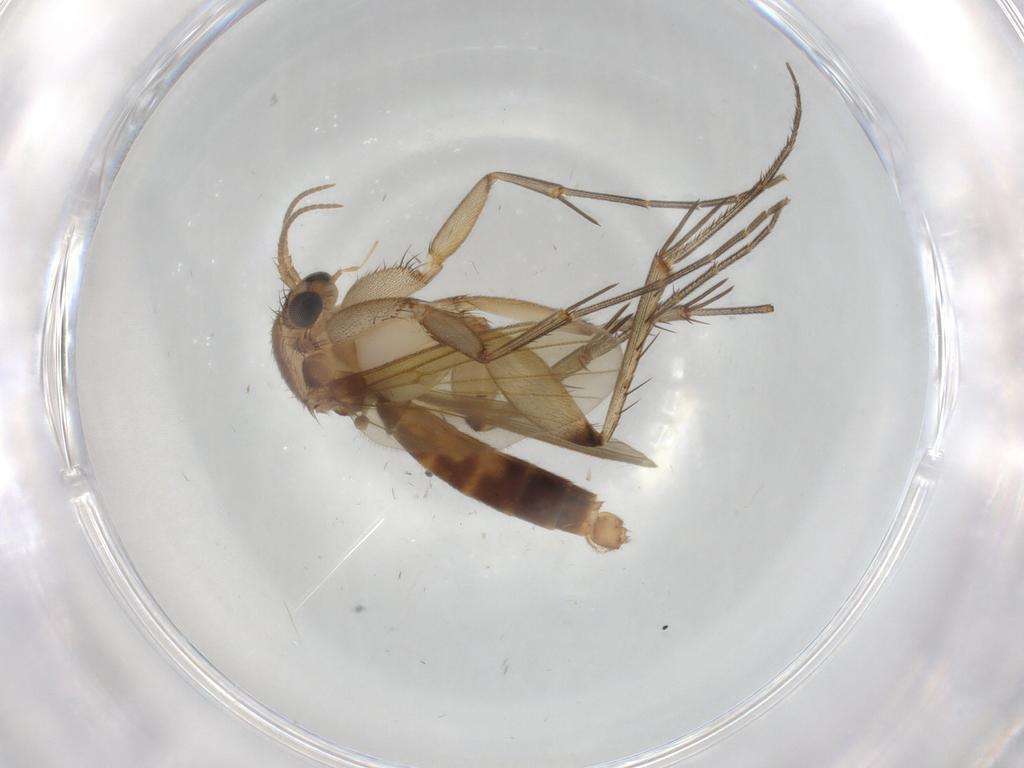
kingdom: Animalia
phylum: Arthropoda
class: Insecta
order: Diptera
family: Mycetophilidae
